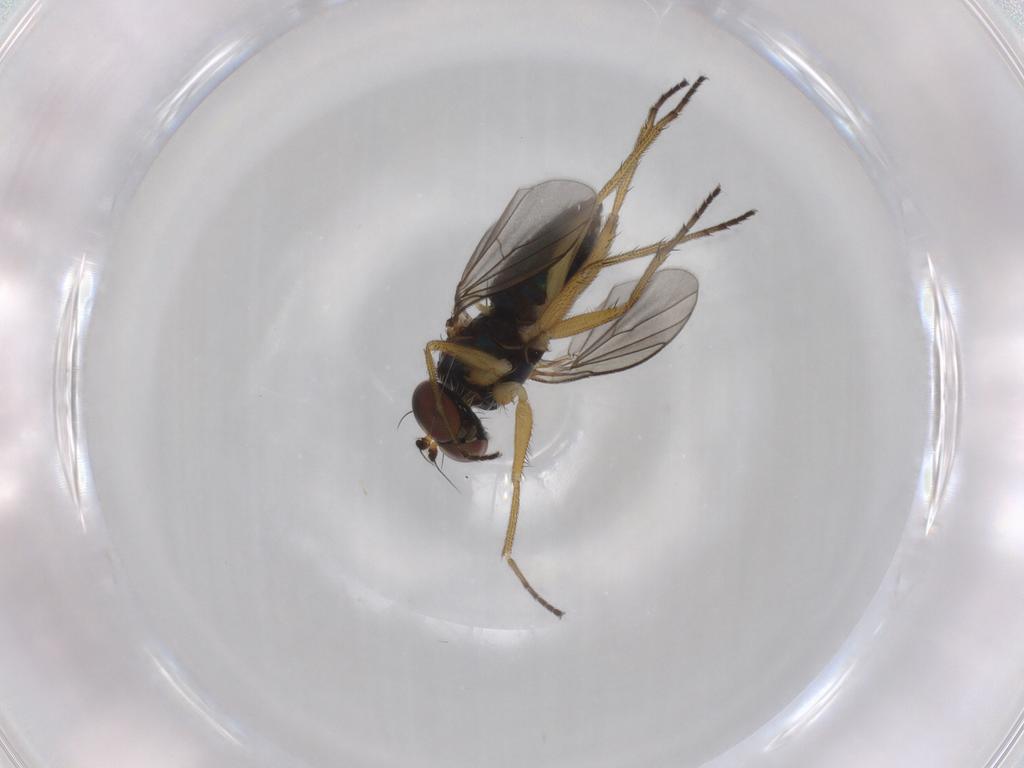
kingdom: Animalia
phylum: Arthropoda
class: Insecta
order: Diptera
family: Dolichopodidae
